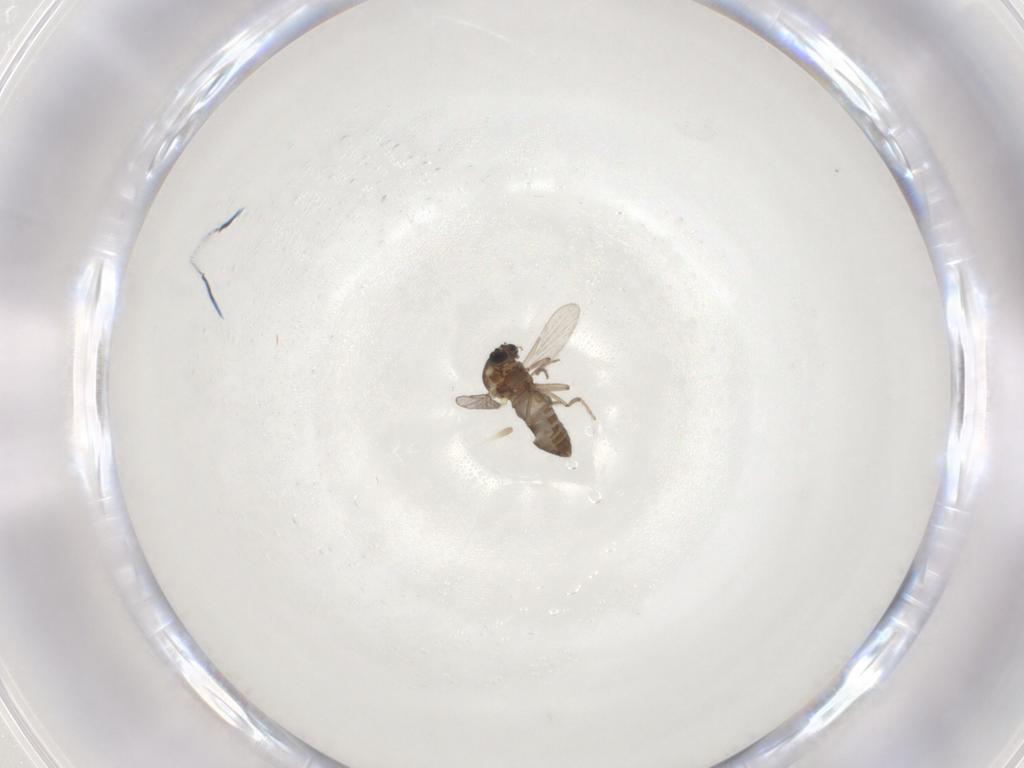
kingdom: Animalia
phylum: Arthropoda
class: Insecta
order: Diptera
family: Ceratopogonidae
